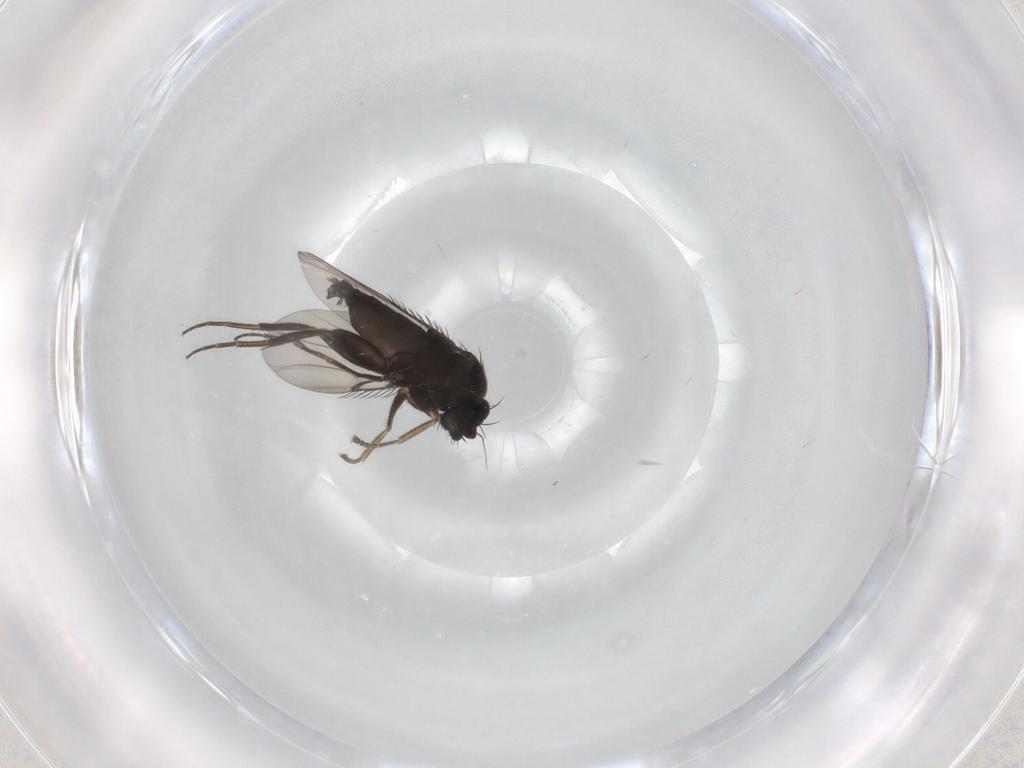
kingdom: Animalia
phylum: Arthropoda
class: Insecta
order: Diptera
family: Phoridae
